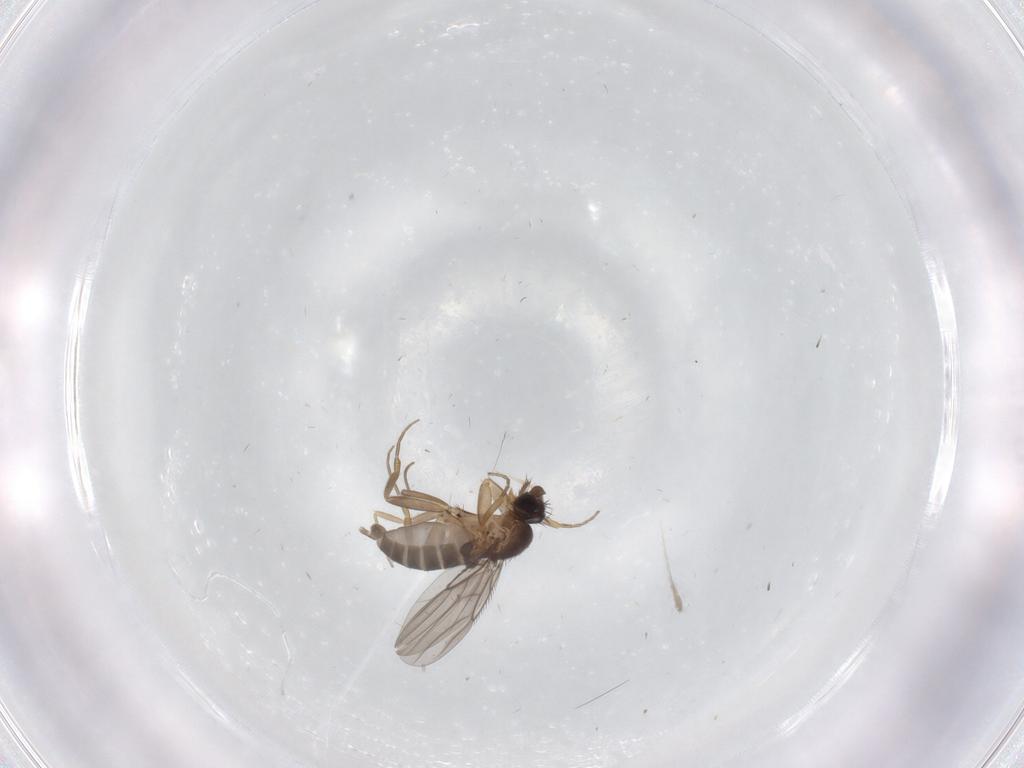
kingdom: Animalia
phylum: Arthropoda
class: Insecta
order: Diptera
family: Phoridae
